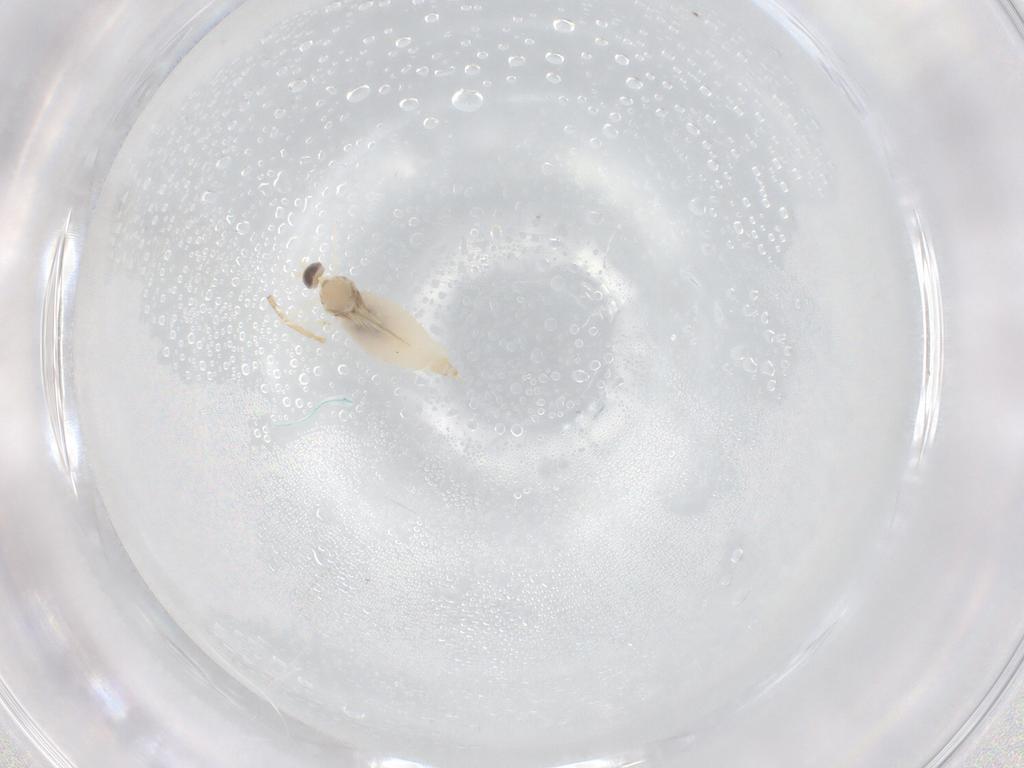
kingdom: Animalia
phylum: Arthropoda
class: Insecta
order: Diptera
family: Cecidomyiidae
